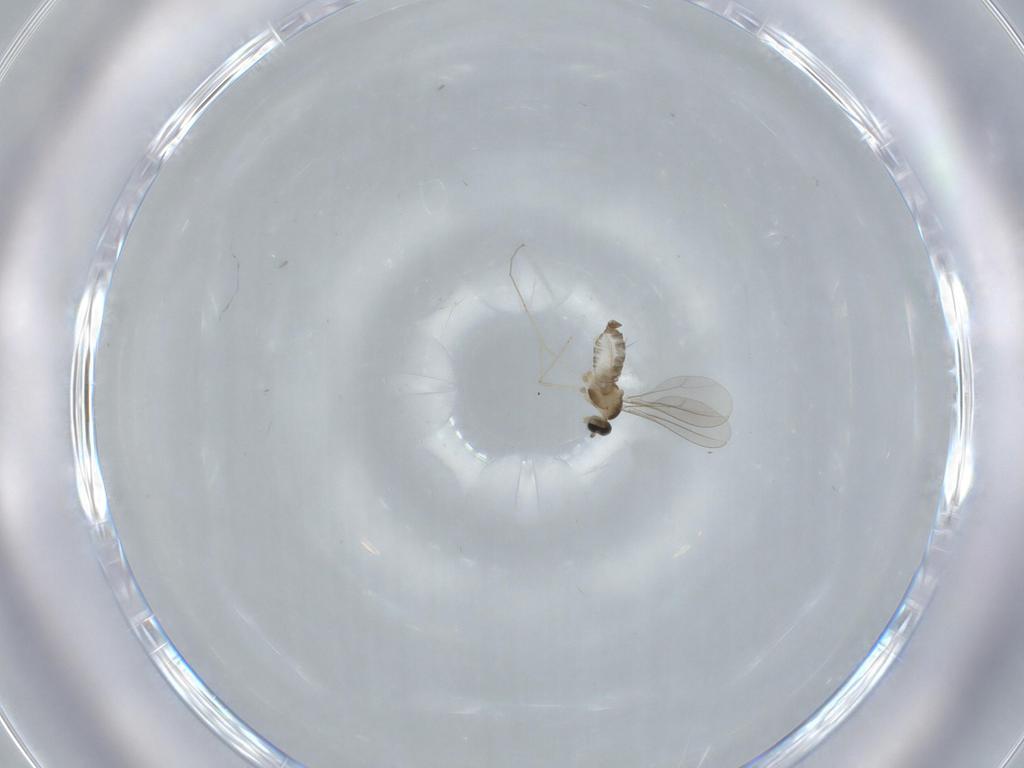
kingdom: Animalia
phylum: Arthropoda
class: Insecta
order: Diptera
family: Cecidomyiidae
